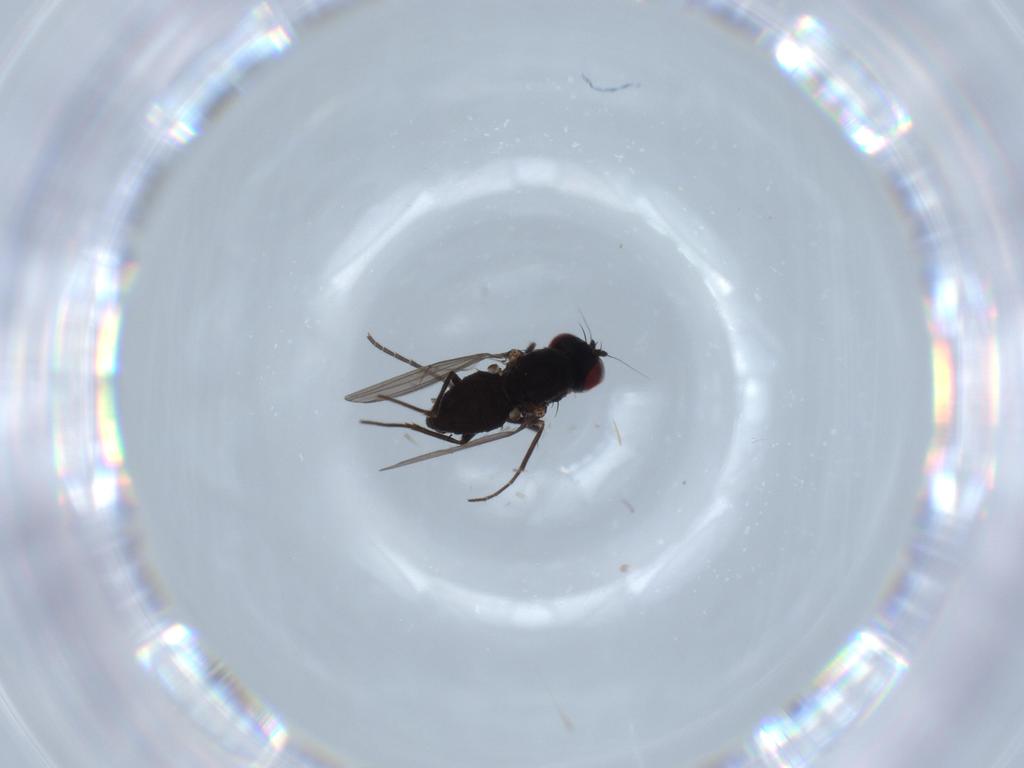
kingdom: Animalia
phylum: Arthropoda
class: Insecta
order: Diptera
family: Dolichopodidae
